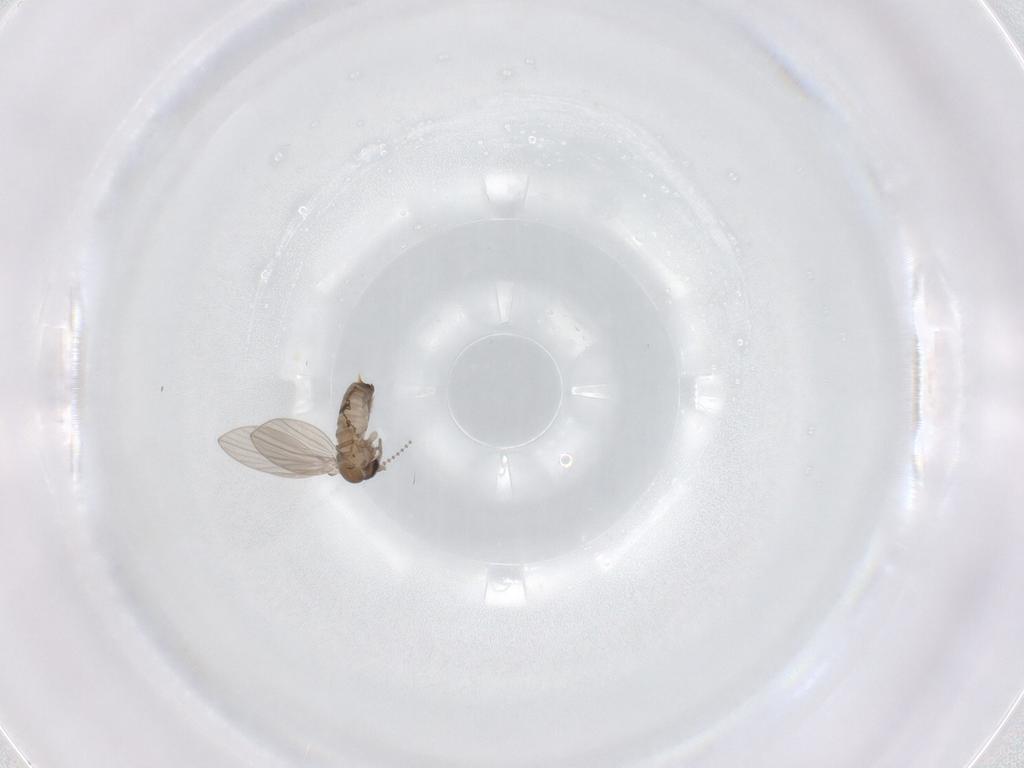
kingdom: Animalia
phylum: Arthropoda
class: Insecta
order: Diptera
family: Psychodidae
